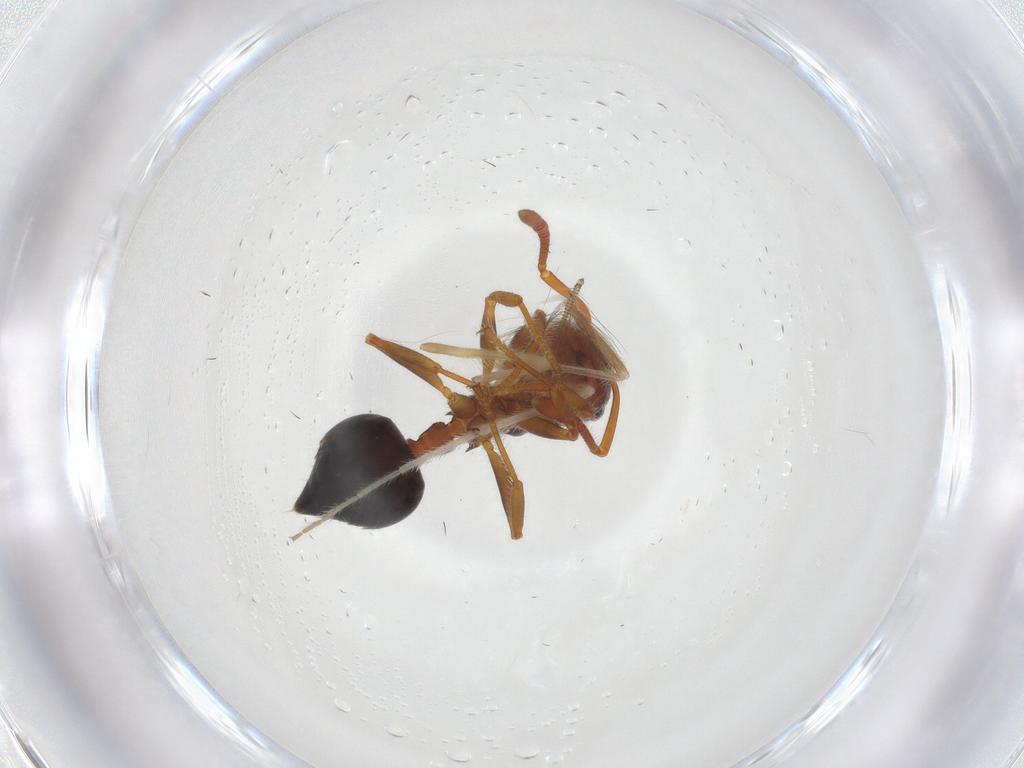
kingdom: Animalia
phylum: Arthropoda
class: Insecta
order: Hymenoptera
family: Formicidae
